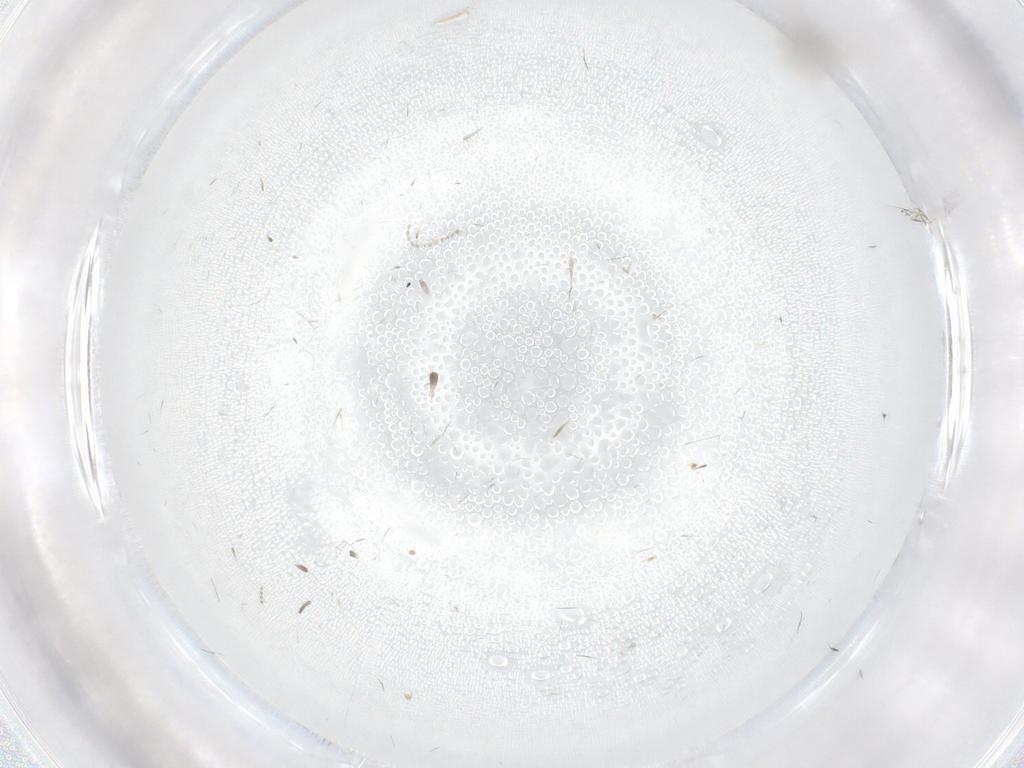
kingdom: Animalia
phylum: Arthropoda
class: Insecta
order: Diptera
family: Cecidomyiidae
